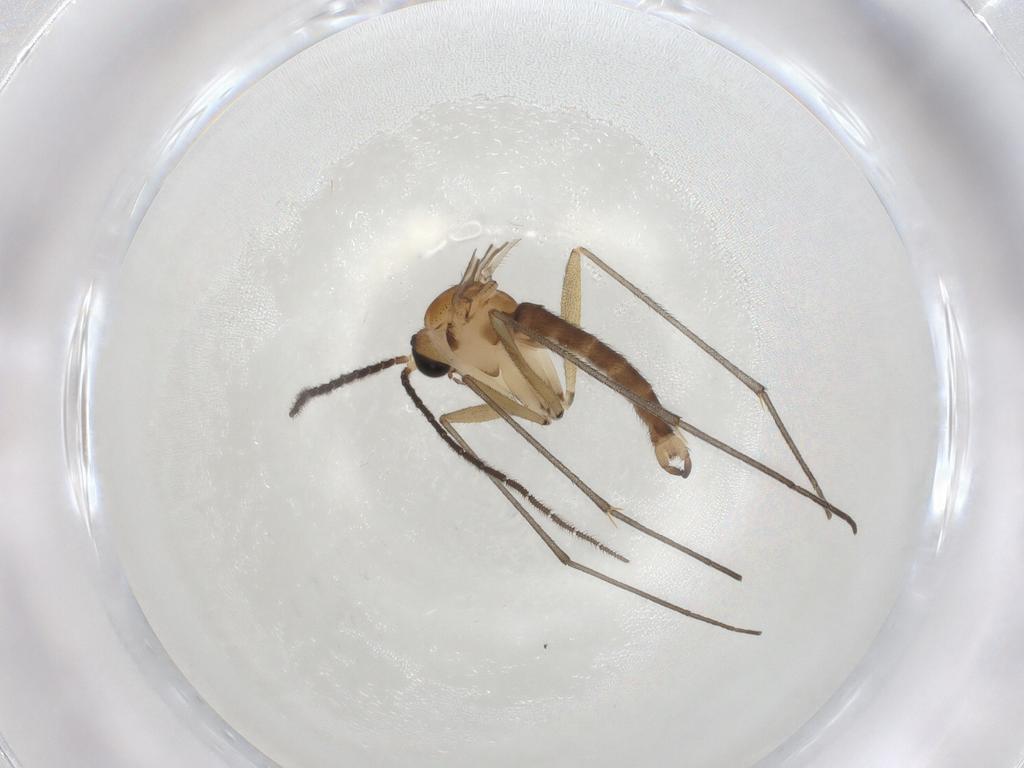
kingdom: Animalia
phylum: Arthropoda
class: Insecta
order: Diptera
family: Sciaridae
